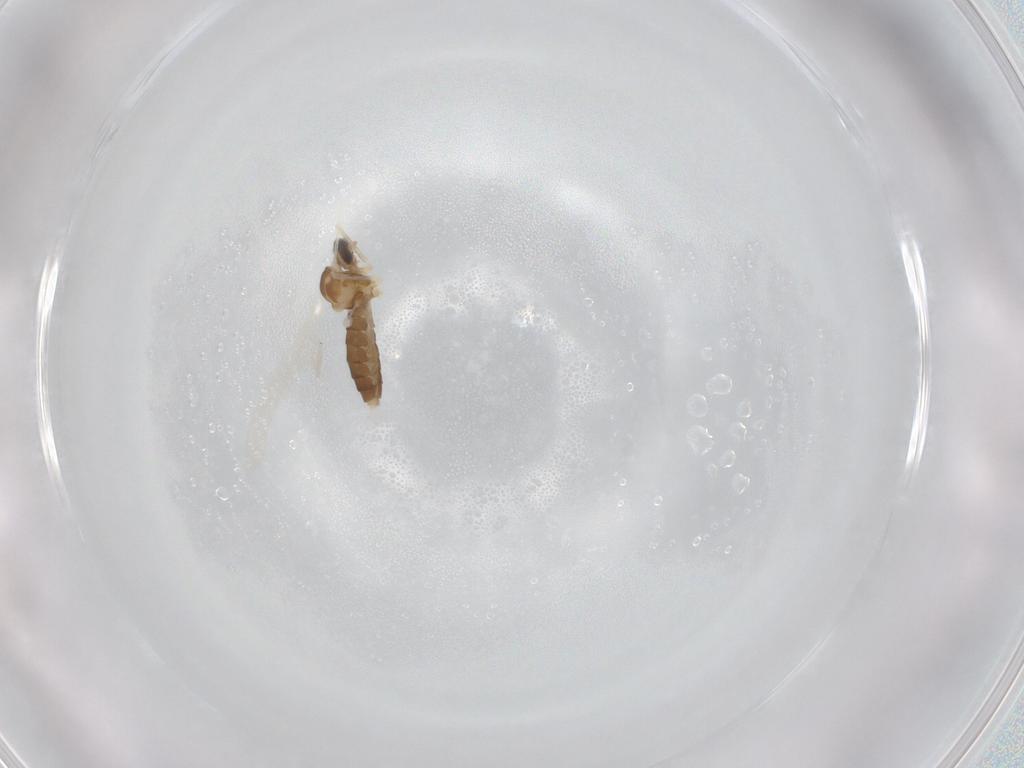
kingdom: Animalia
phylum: Arthropoda
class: Insecta
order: Diptera
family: Cecidomyiidae
